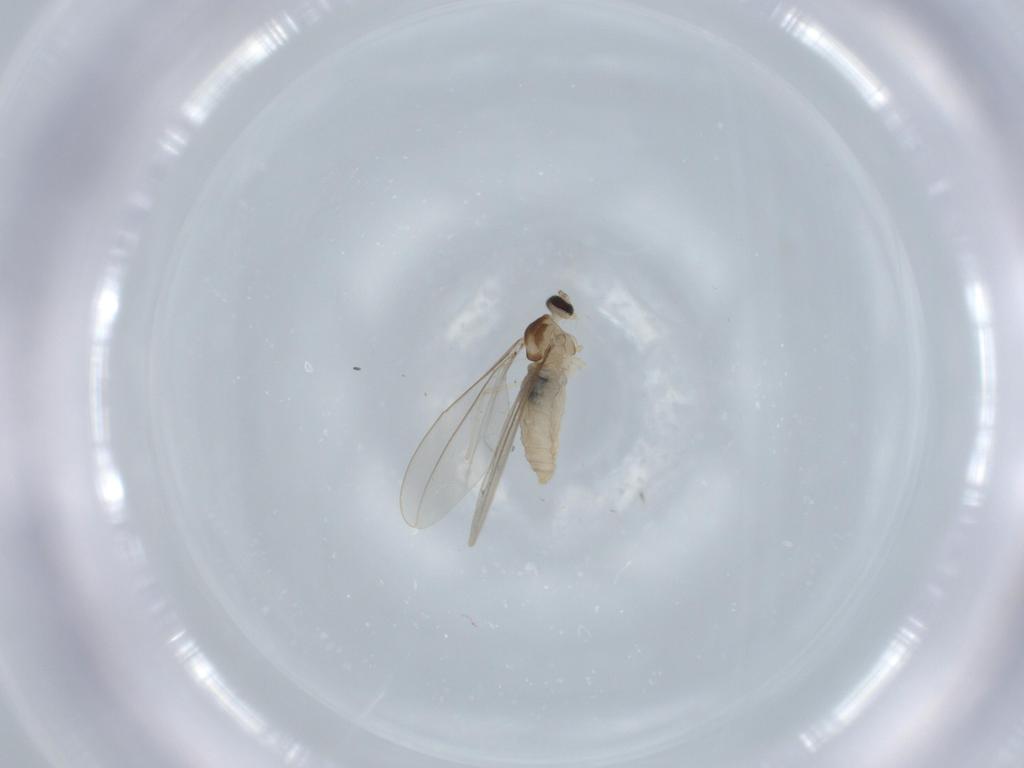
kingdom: Animalia
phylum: Arthropoda
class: Insecta
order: Diptera
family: Cecidomyiidae
